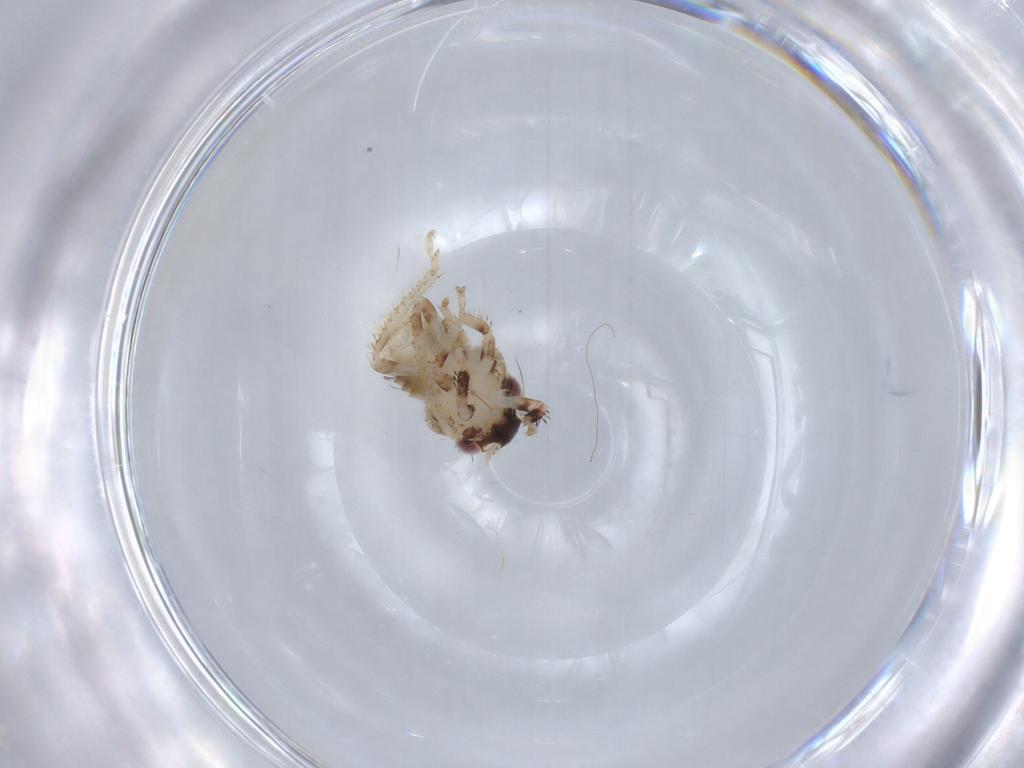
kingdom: Animalia
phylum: Arthropoda
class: Insecta
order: Hemiptera
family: Cicadellidae
